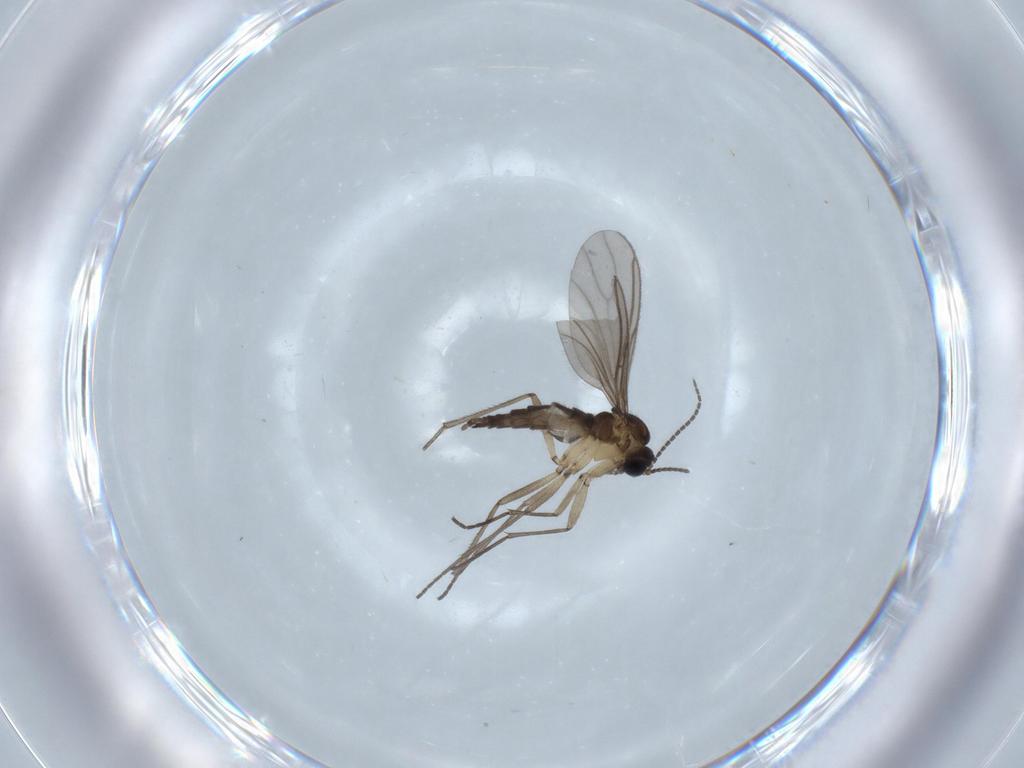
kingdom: Animalia
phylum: Arthropoda
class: Insecta
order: Diptera
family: Sciaridae
